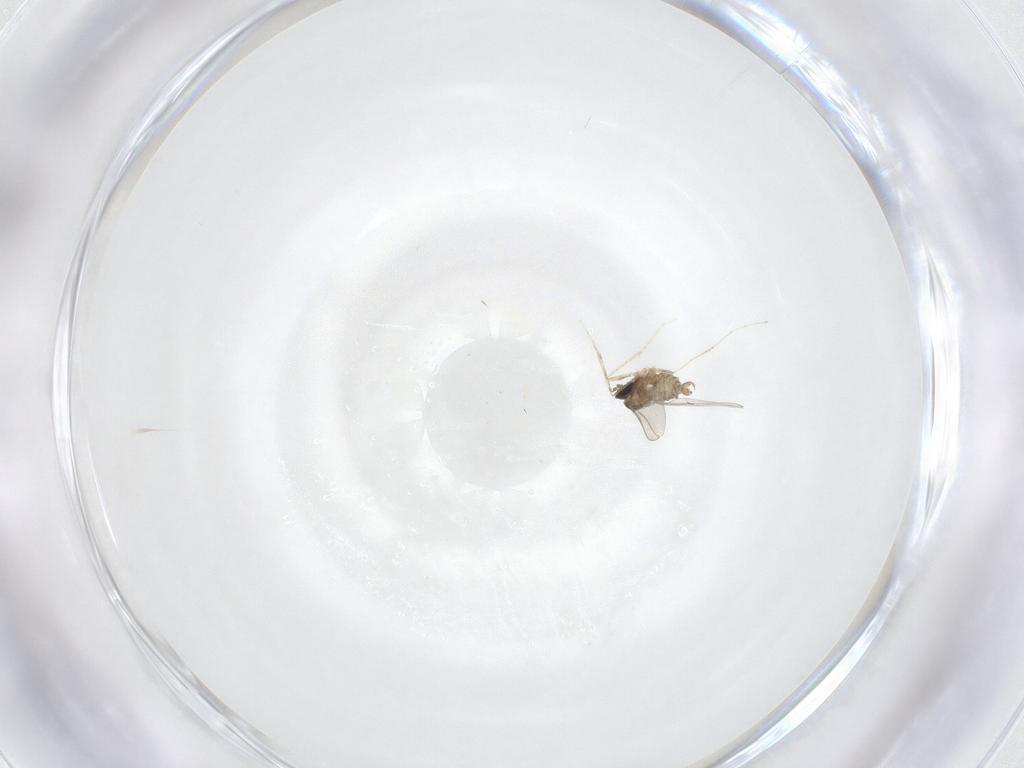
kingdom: Animalia
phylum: Arthropoda
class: Insecta
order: Diptera
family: Cecidomyiidae
